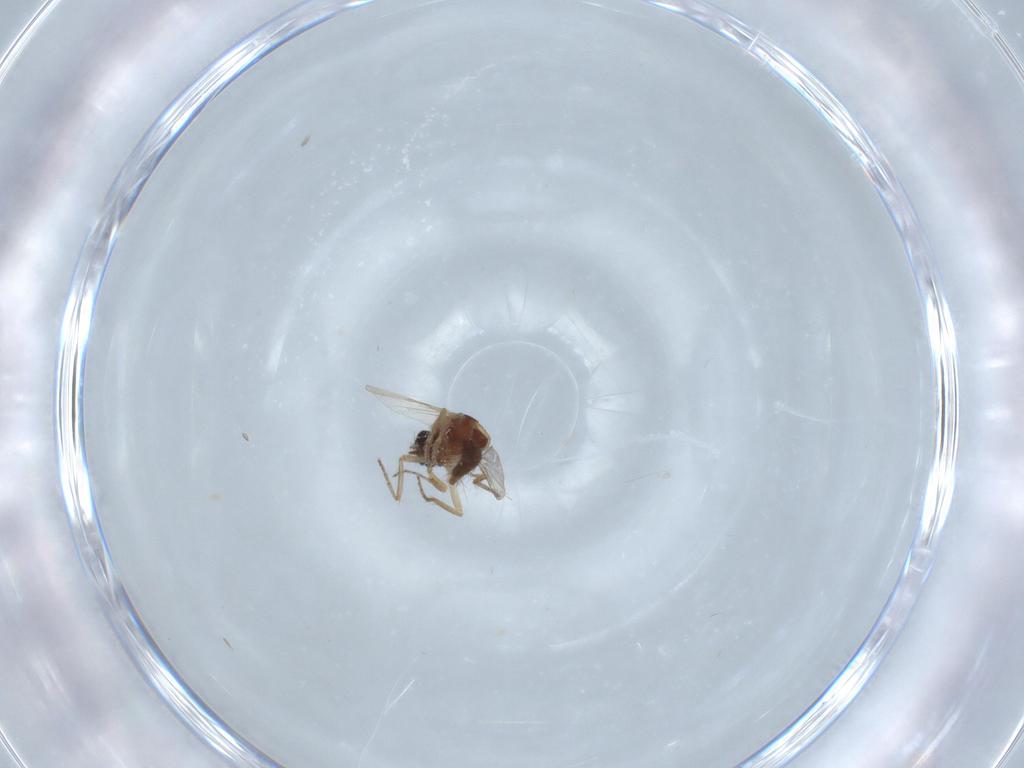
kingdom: Animalia
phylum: Arthropoda
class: Insecta
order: Diptera
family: Ceratopogonidae
